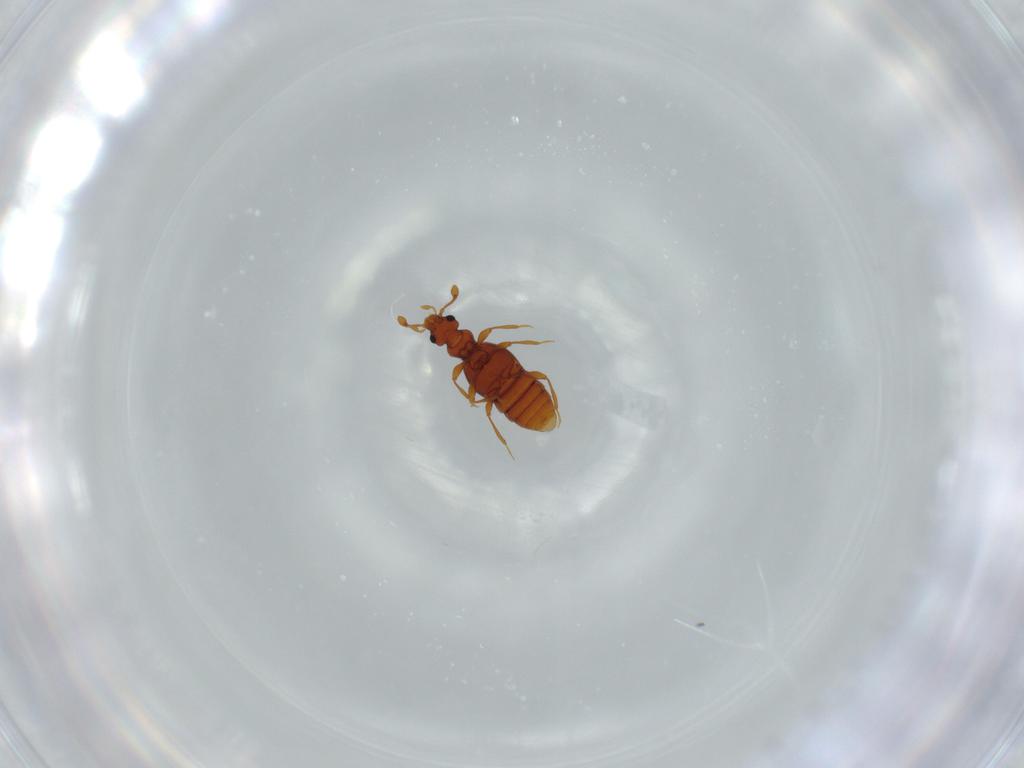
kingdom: Animalia
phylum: Arthropoda
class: Insecta
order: Coleoptera
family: Staphylinidae
